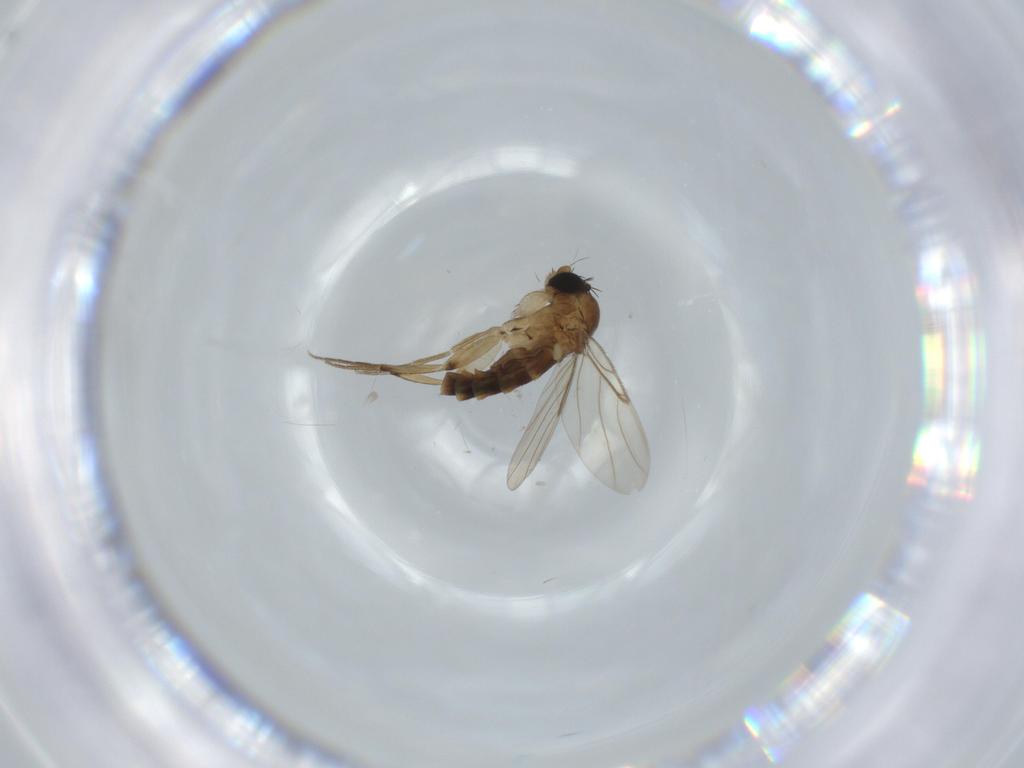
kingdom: Animalia
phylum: Arthropoda
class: Insecta
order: Diptera
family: Phoridae
